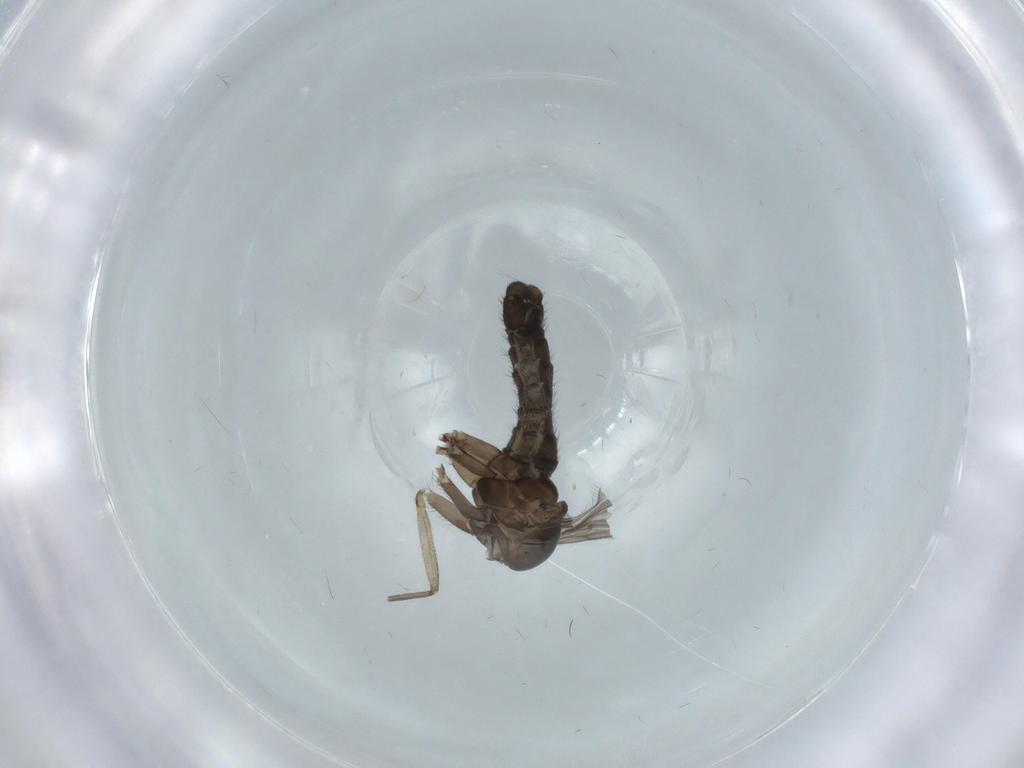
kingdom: Animalia
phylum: Arthropoda
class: Insecta
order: Diptera
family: Sciaridae
